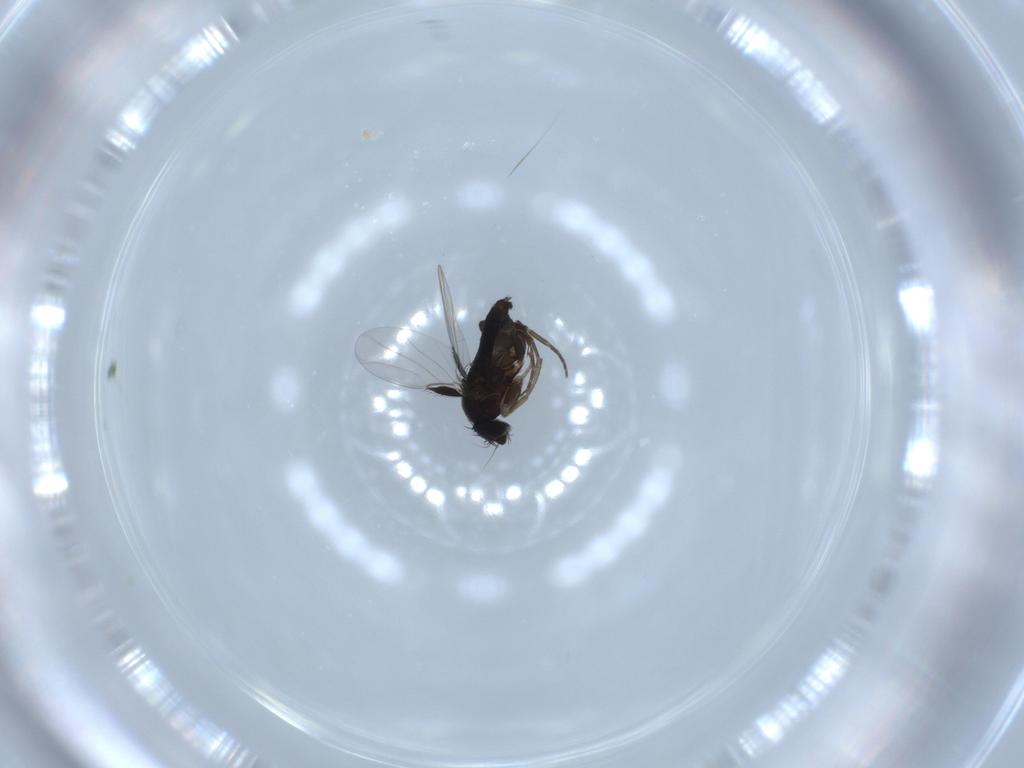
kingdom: Animalia
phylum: Arthropoda
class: Insecta
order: Diptera
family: Phoridae
